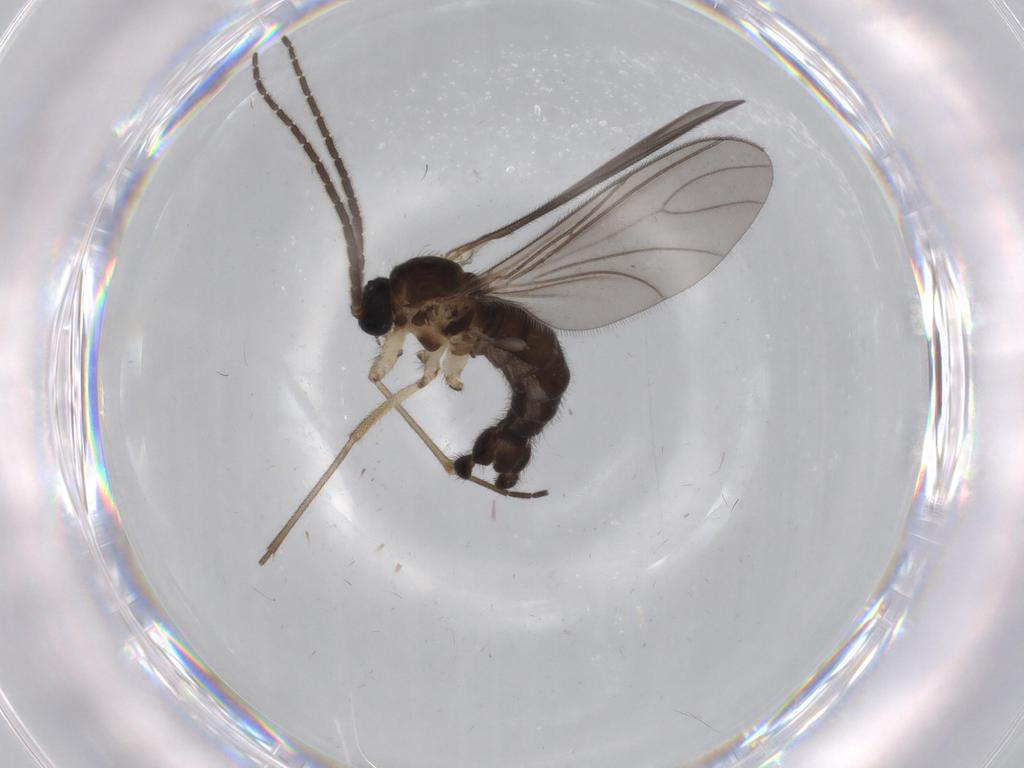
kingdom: Animalia
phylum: Arthropoda
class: Insecta
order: Diptera
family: Sciaridae
